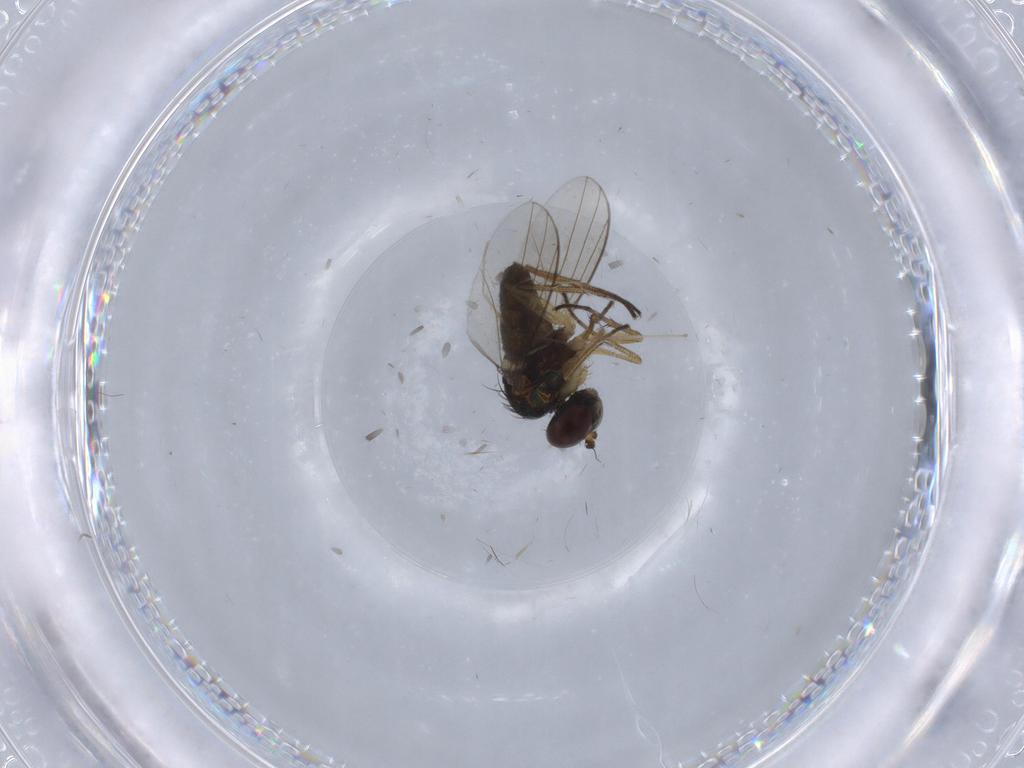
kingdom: Animalia
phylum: Arthropoda
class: Insecta
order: Diptera
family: Dolichopodidae
